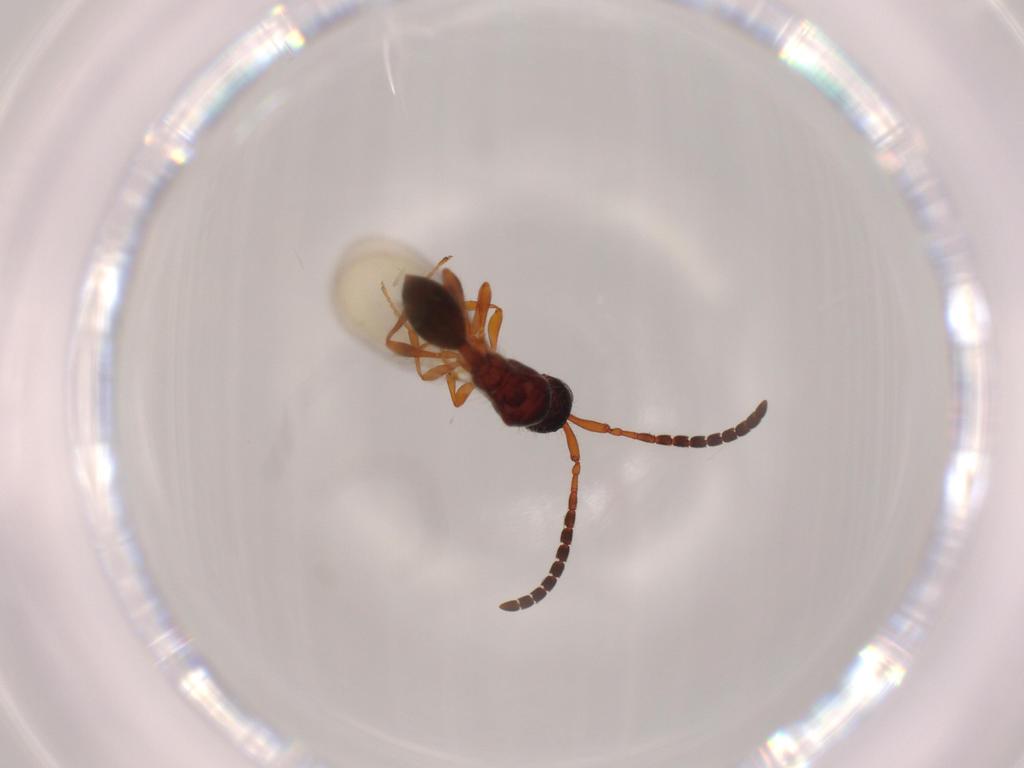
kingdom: Animalia
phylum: Arthropoda
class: Insecta
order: Hymenoptera
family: Diapriidae
